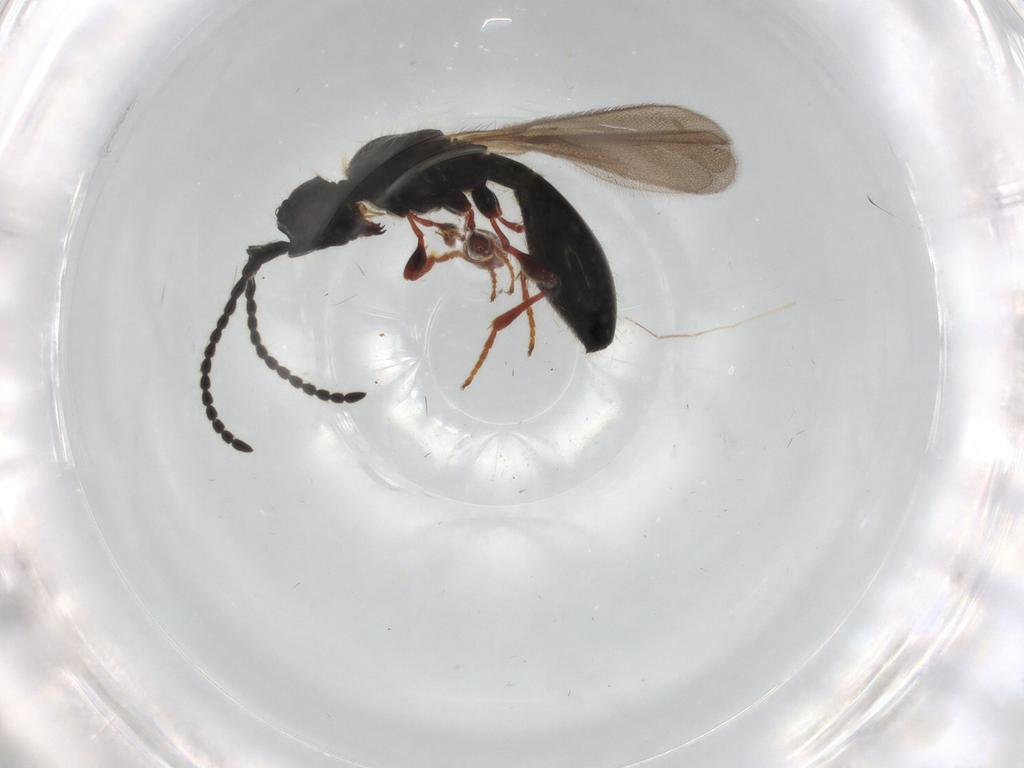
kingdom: Animalia
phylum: Arthropoda
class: Insecta
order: Hymenoptera
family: Diapriidae
